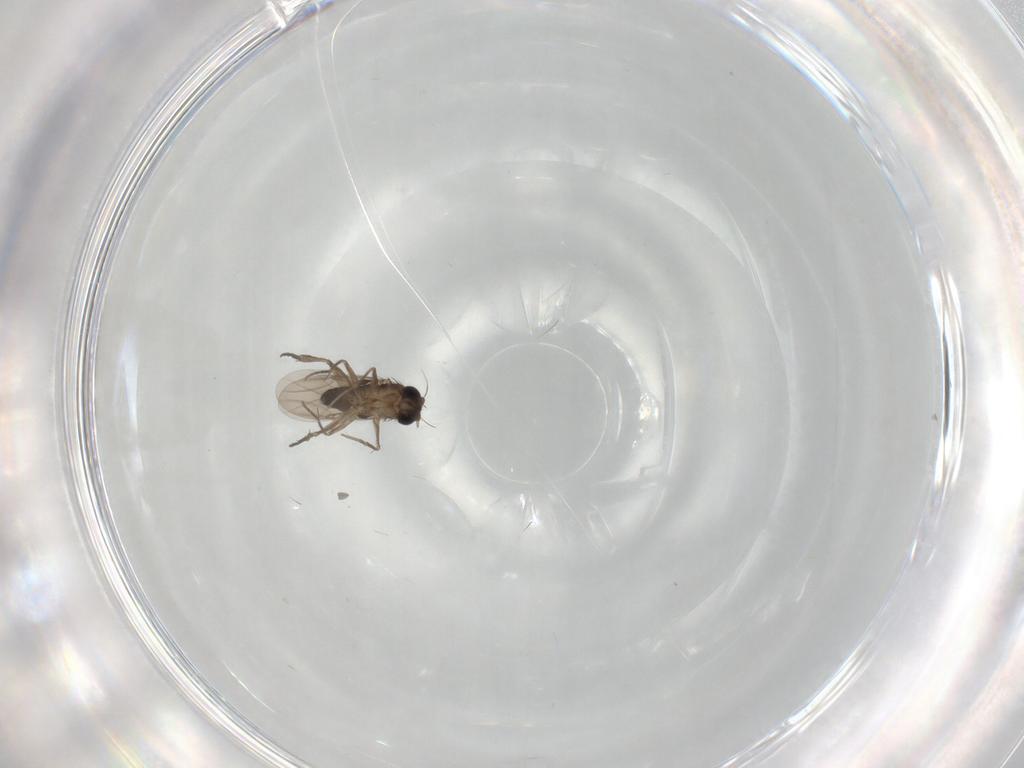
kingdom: Animalia
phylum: Arthropoda
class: Insecta
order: Diptera
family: Phoridae
